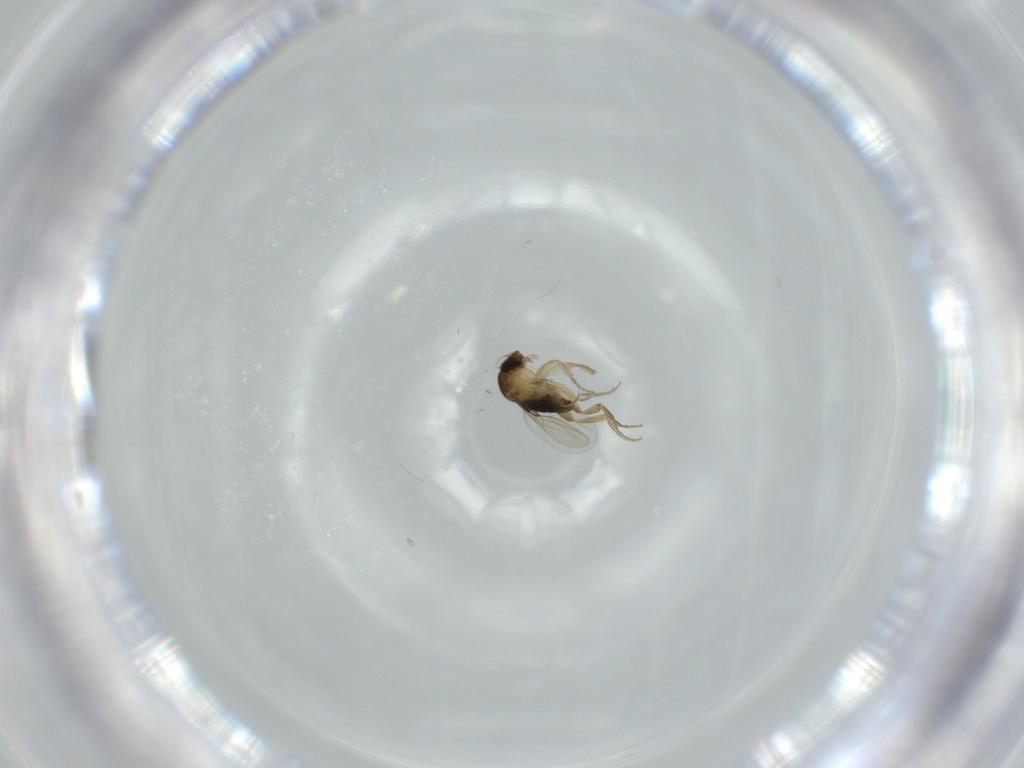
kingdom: Animalia
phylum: Arthropoda
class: Insecta
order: Diptera
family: Phoridae
